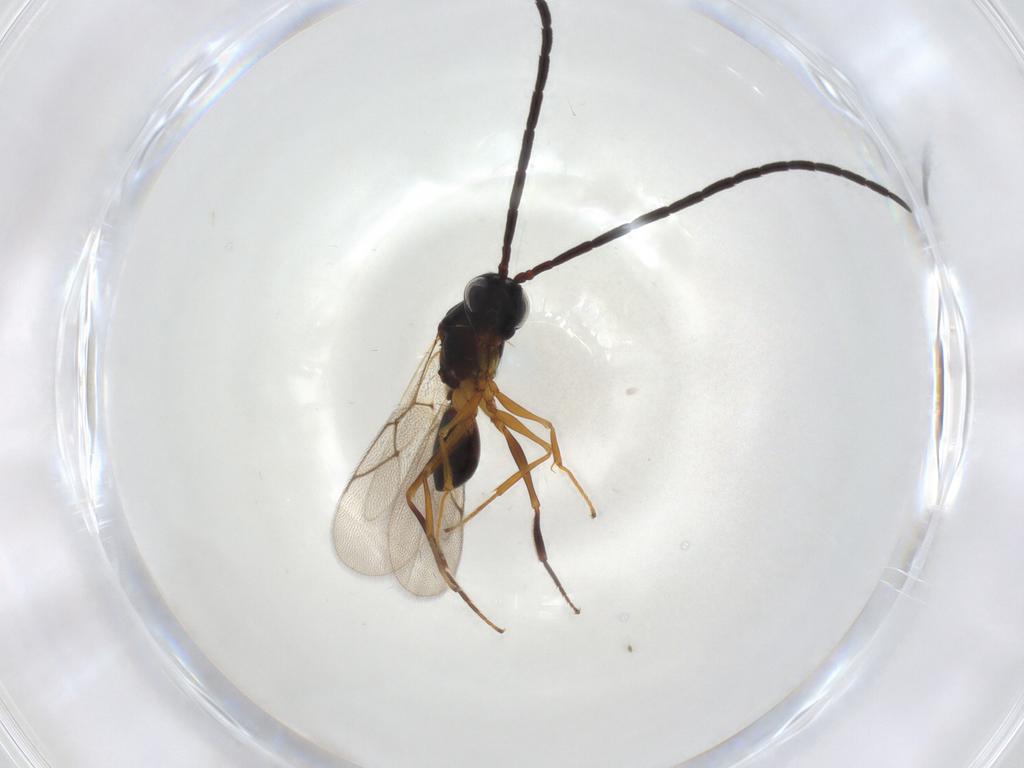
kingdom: Animalia
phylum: Arthropoda
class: Insecta
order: Hymenoptera
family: Figitidae
